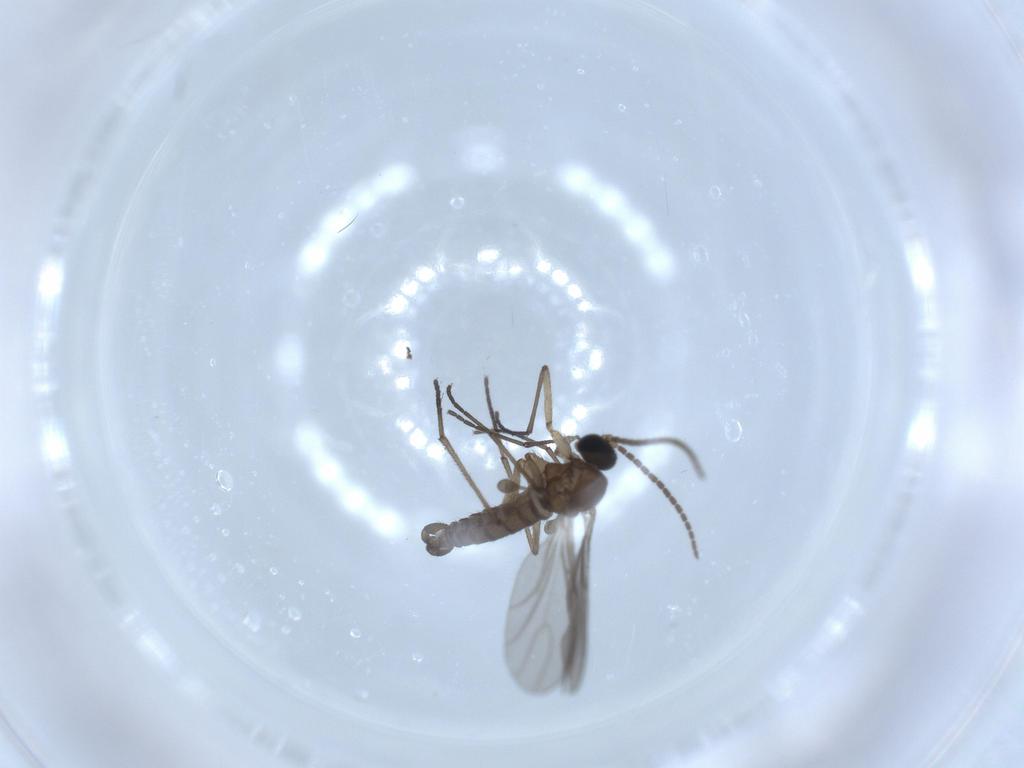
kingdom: Animalia
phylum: Arthropoda
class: Insecta
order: Diptera
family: Sciaridae
